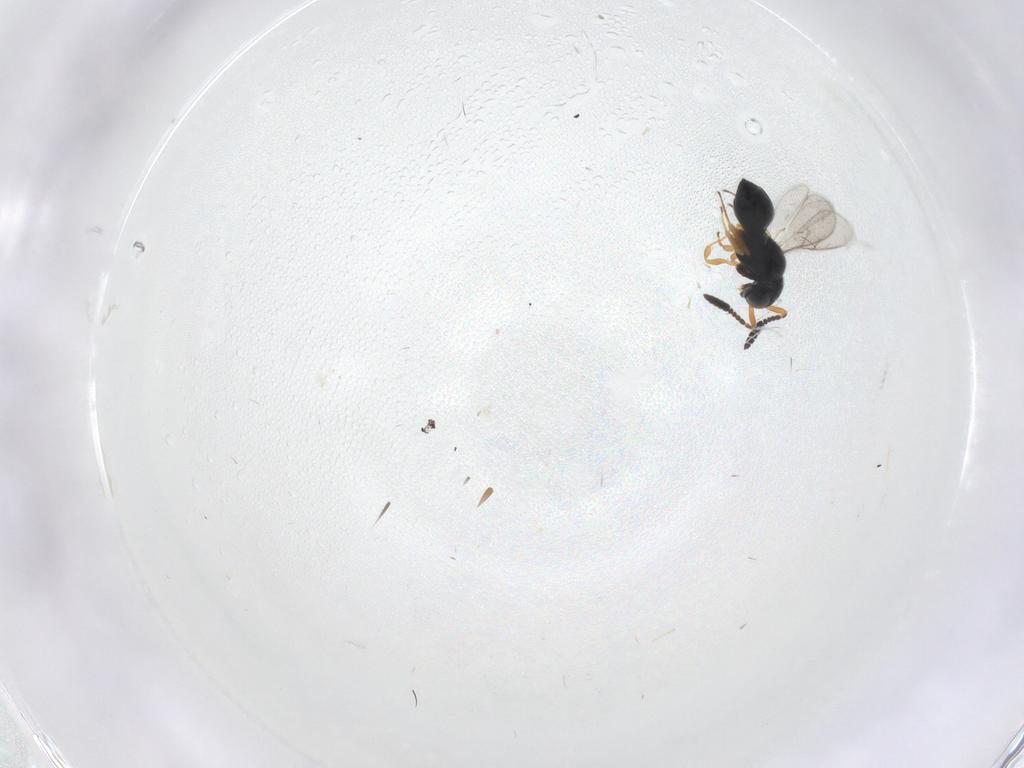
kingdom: Animalia
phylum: Arthropoda
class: Insecta
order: Hymenoptera
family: Scelionidae
